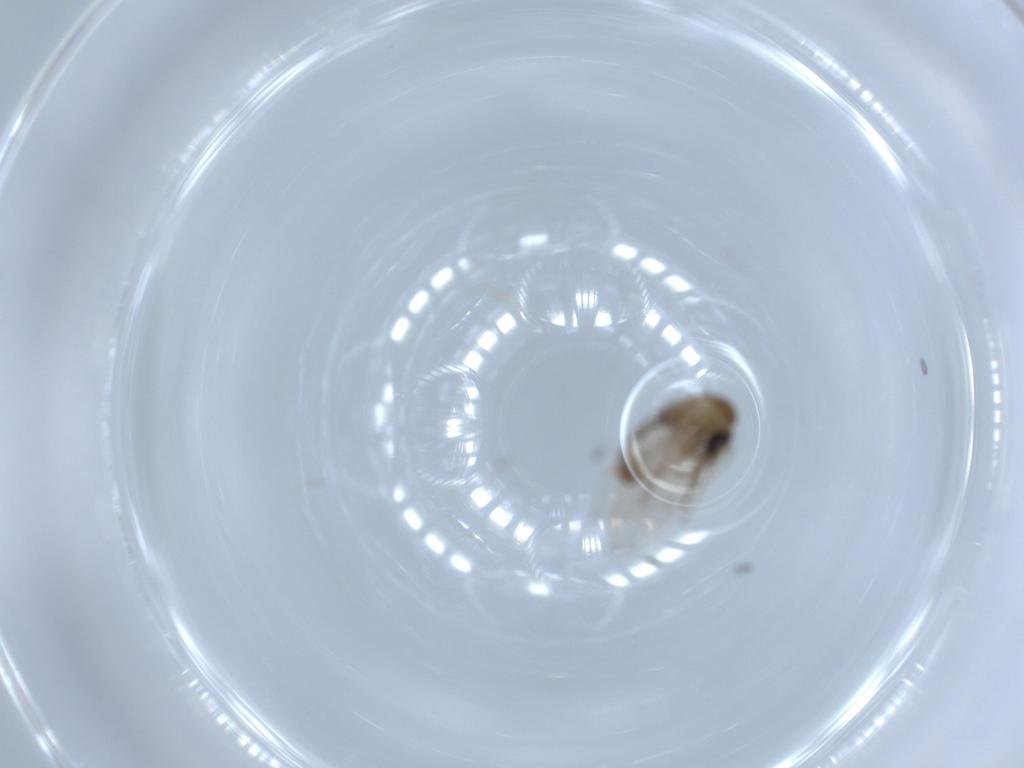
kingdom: Animalia
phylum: Arthropoda
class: Insecta
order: Diptera
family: Psychodidae
